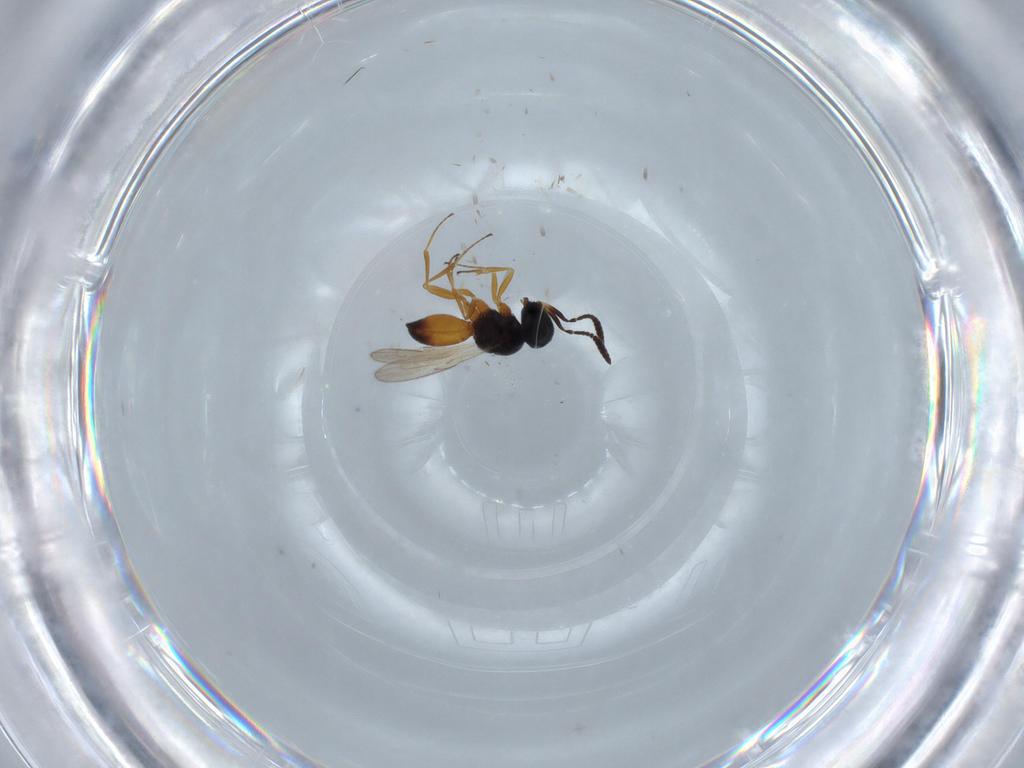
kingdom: Animalia
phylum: Arthropoda
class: Insecta
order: Hymenoptera
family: Scelionidae
